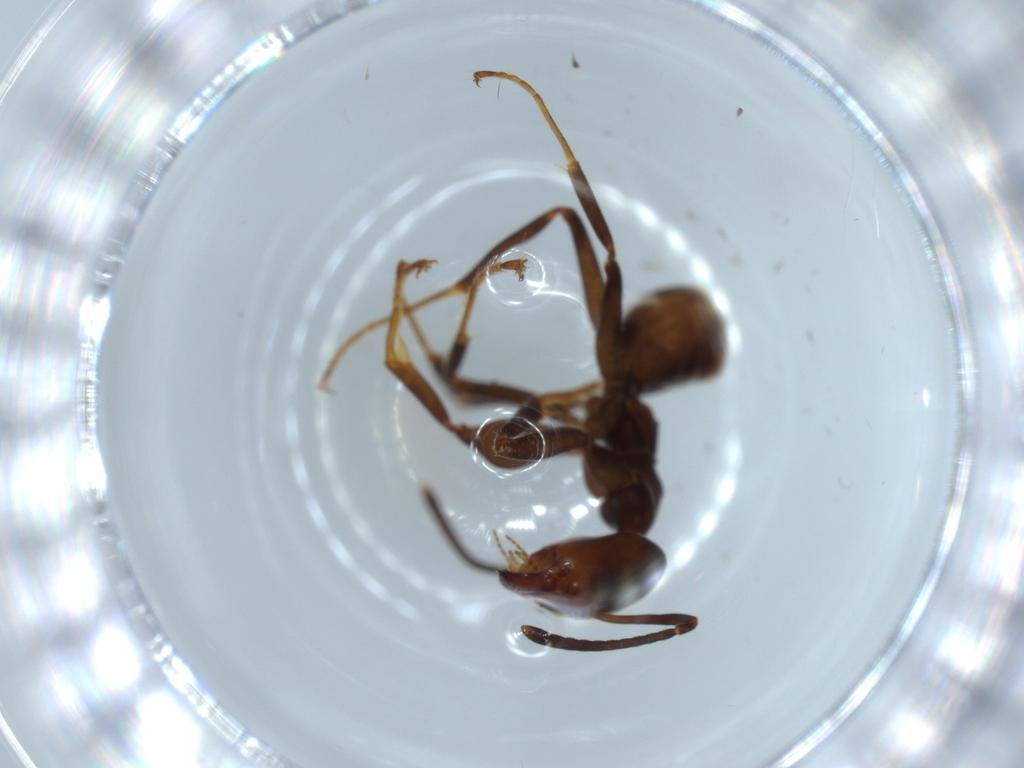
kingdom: Animalia
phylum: Arthropoda
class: Insecta
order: Hymenoptera
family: Formicidae
